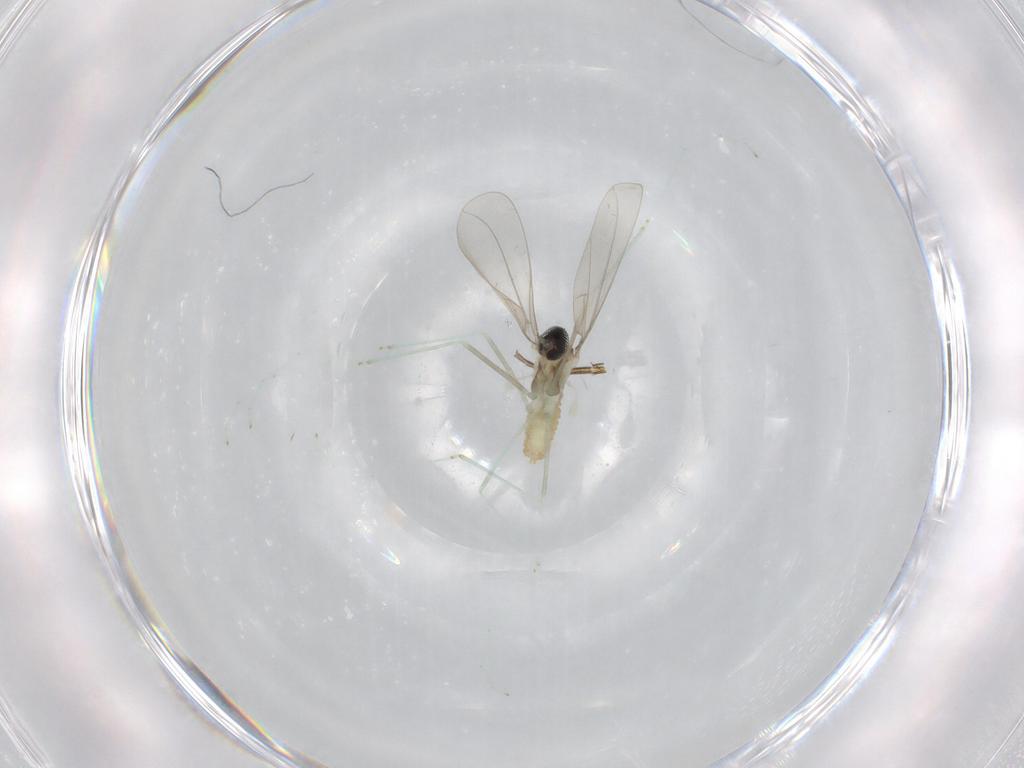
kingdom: Animalia
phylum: Arthropoda
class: Insecta
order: Diptera
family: Cecidomyiidae
